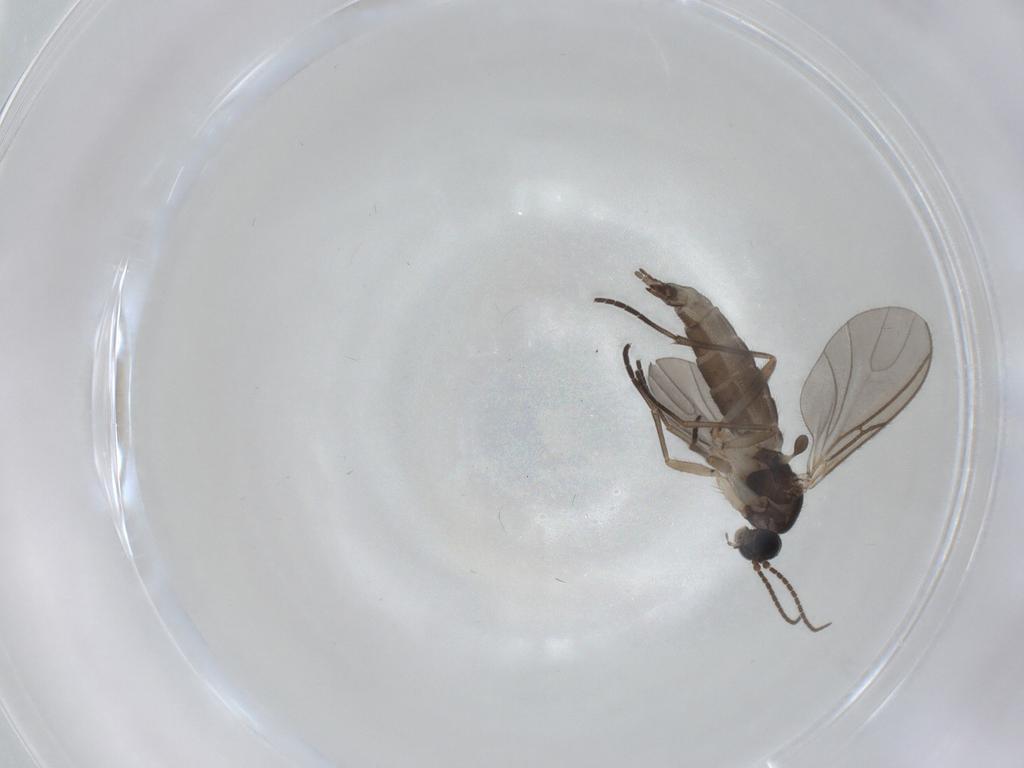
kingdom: Animalia
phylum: Arthropoda
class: Insecta
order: Diptera
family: Sciaridae
